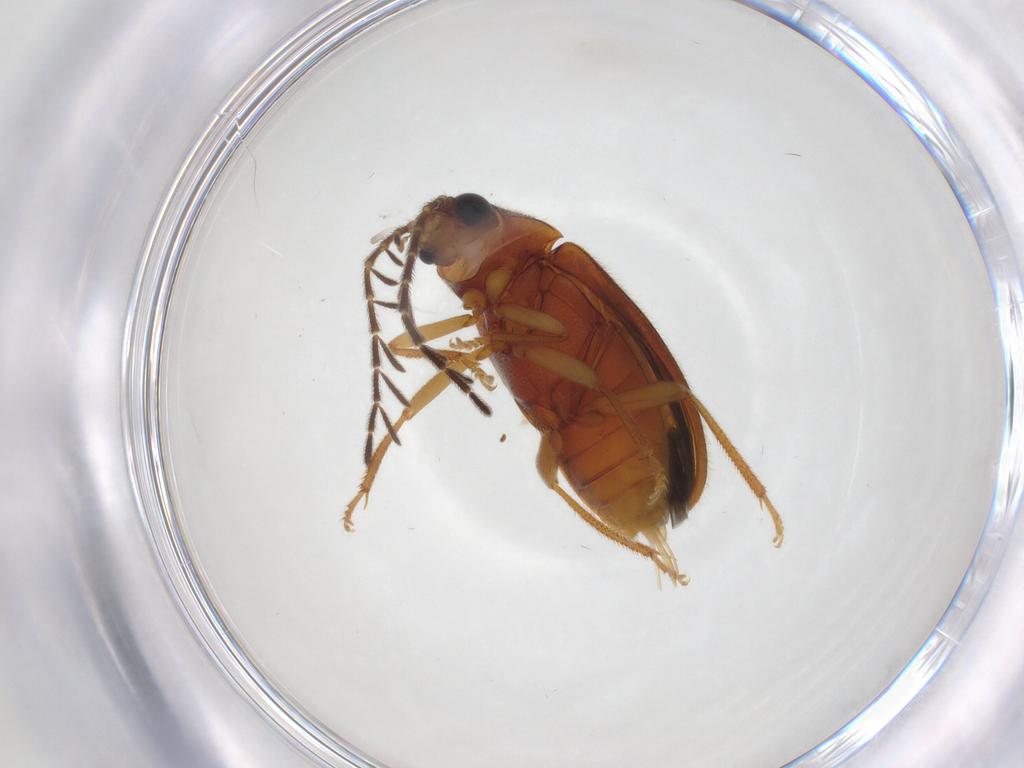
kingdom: Animalia
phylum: Arthropoda
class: Insecta
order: Coleoptera
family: Ptilodactylidae
